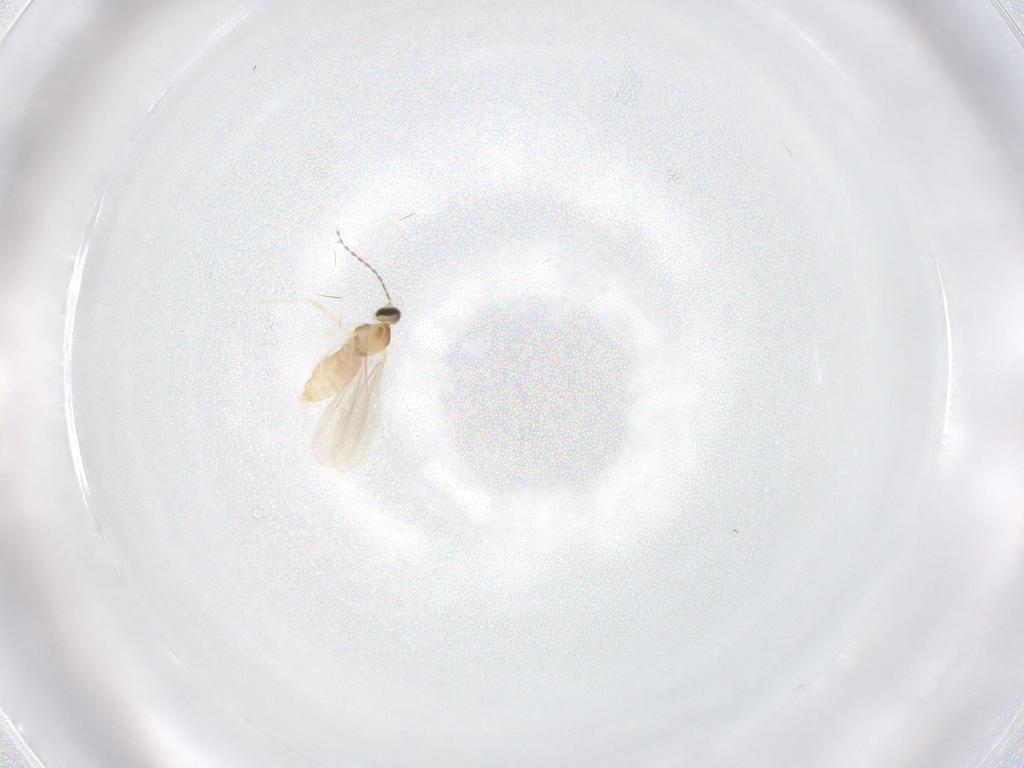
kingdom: Animalia
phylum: Arthropoda
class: Insecta
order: Diptera
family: Cecidomyiidae
